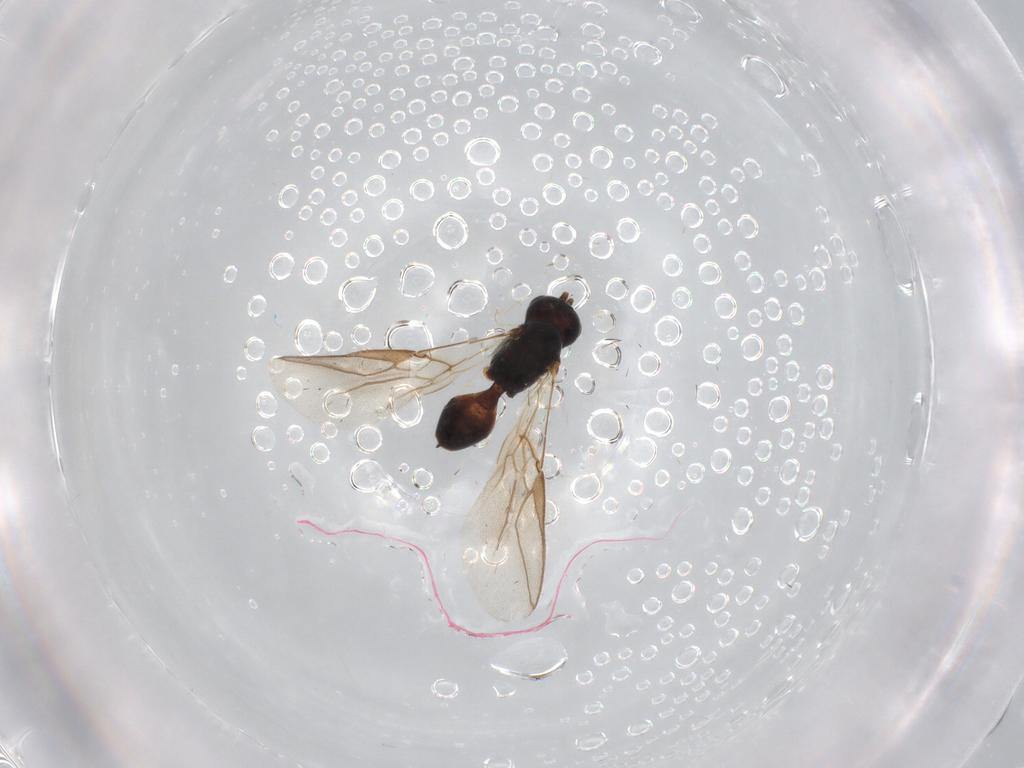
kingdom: Animalia
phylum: Arthropoda
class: Insecta
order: Hymenoptera
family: Braconidae
